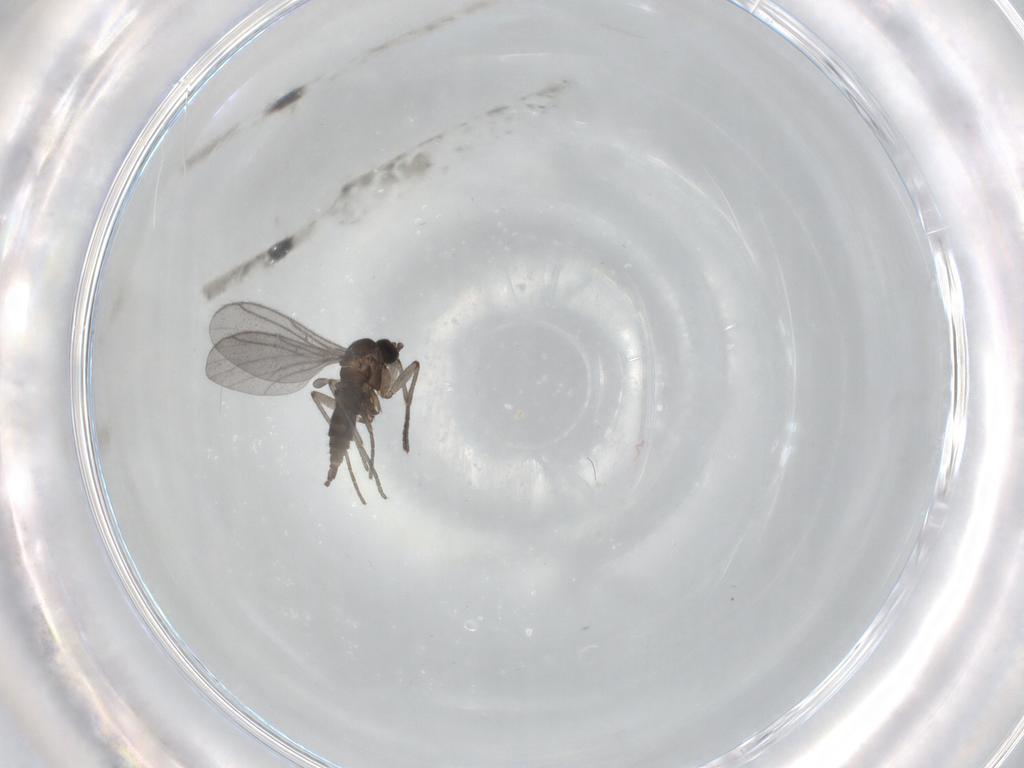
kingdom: Animalia
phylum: Arthropoda
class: Insecta
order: Diptera
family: Sciaridae
